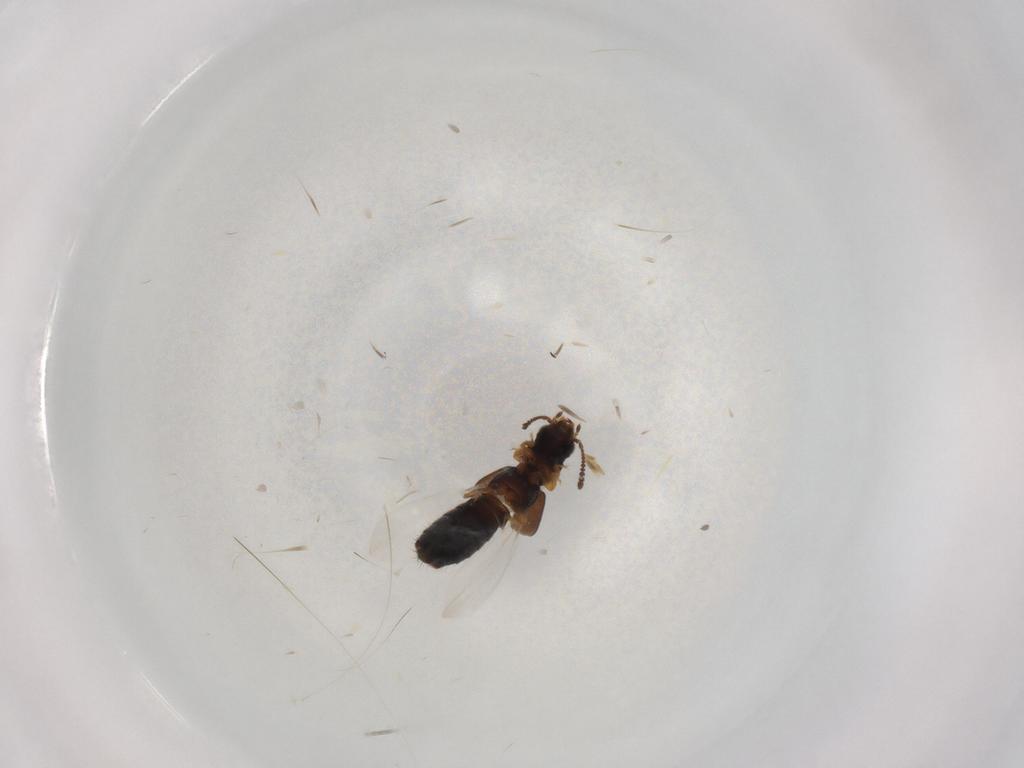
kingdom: Animalia
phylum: Arthropoda
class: Insecta
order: Coleoptera
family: Staphylinidae
